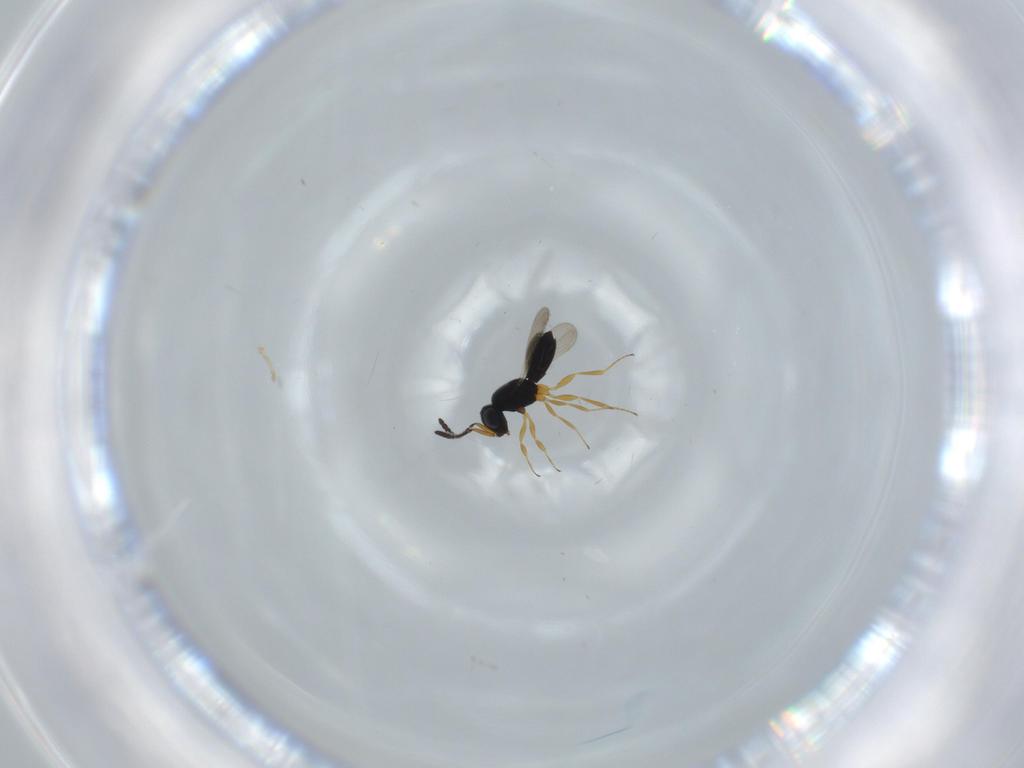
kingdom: Animalia
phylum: Arthropoda
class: Insecta
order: Hymenoptera
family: Scelionidae
